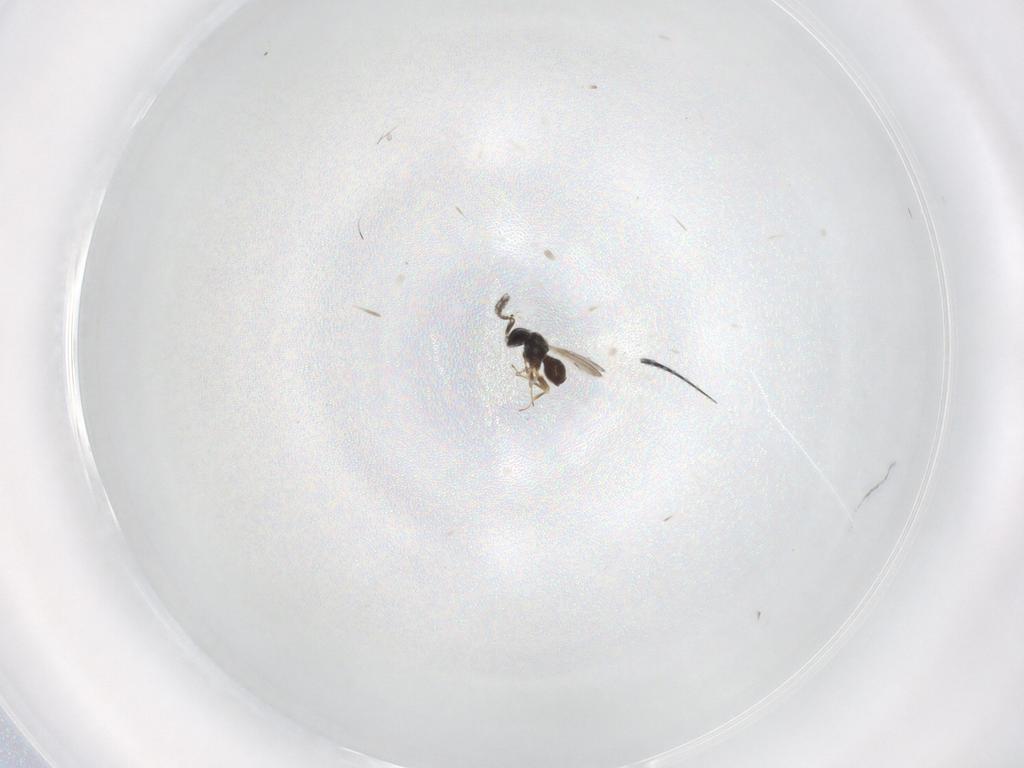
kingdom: Animalia
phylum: Arthropoda
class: Insecta
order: Hymenoptera
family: Scelionidae
